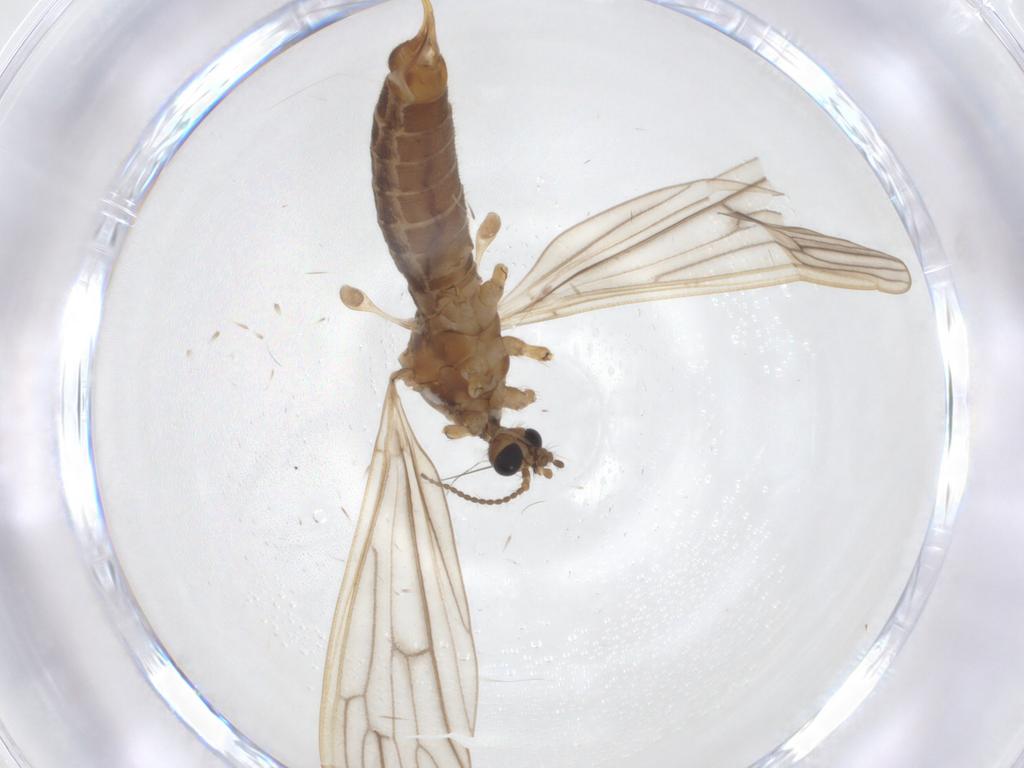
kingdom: Animalia
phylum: Arthropoda
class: Insecta
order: Diptera
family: Limoniidae
